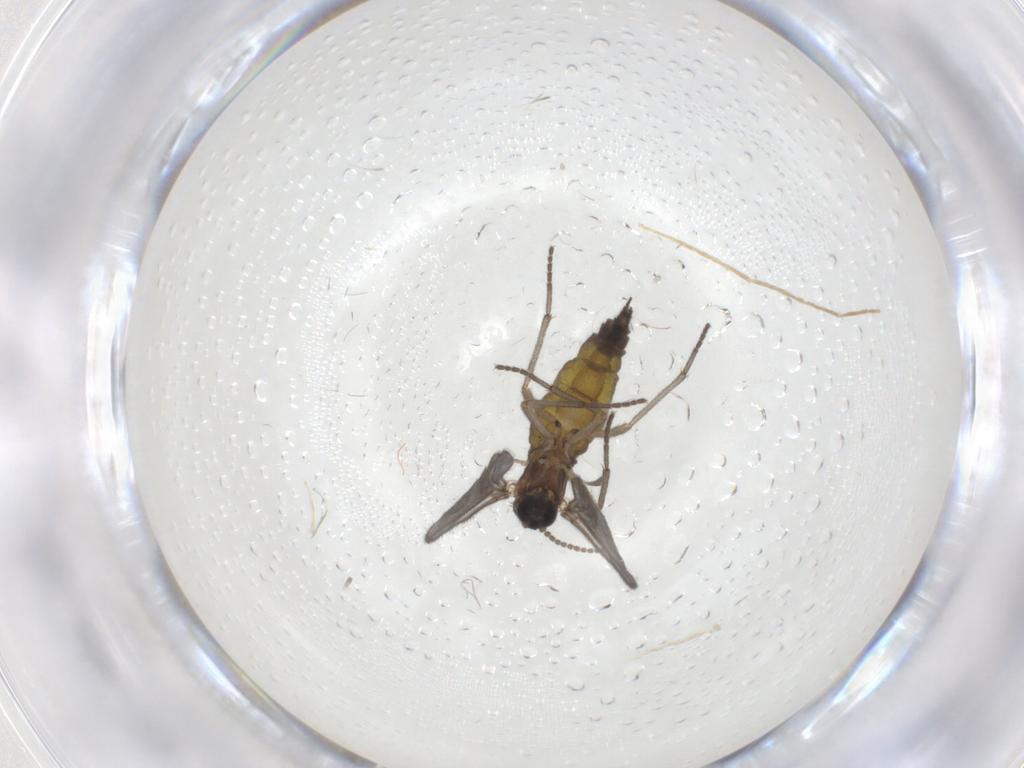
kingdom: Animalia
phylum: Arthropoda
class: Insecta
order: Diptera
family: Sciaridae
